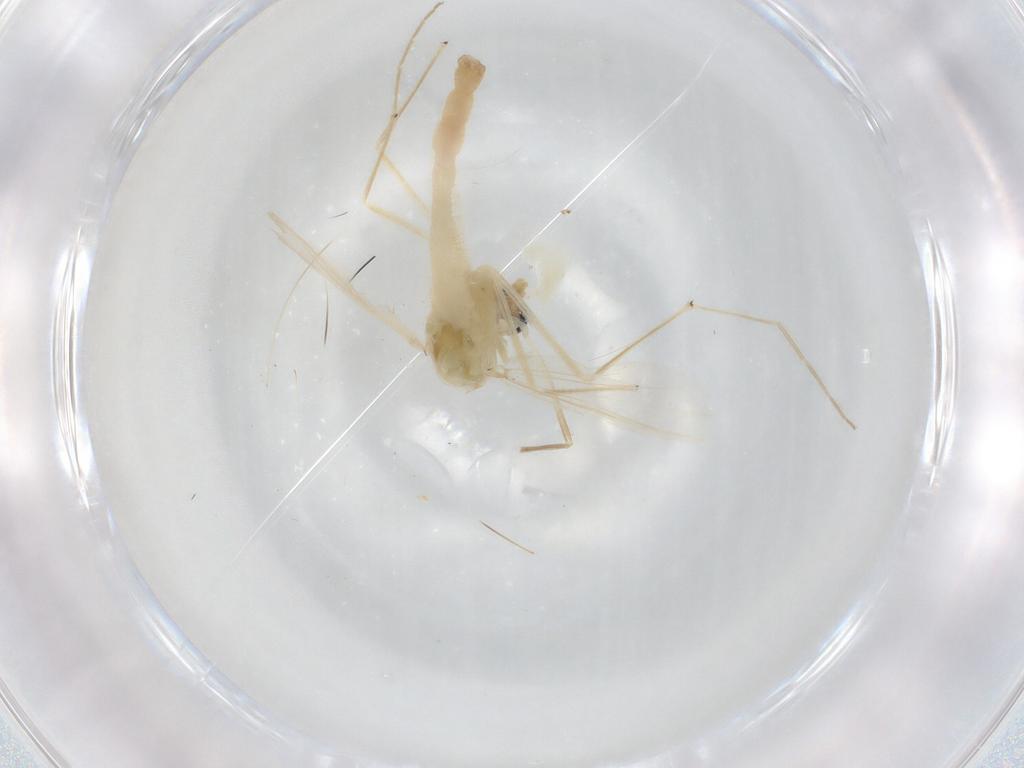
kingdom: Animalia
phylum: Arthropoda
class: Insecta
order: Diptera
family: Chironomidae
